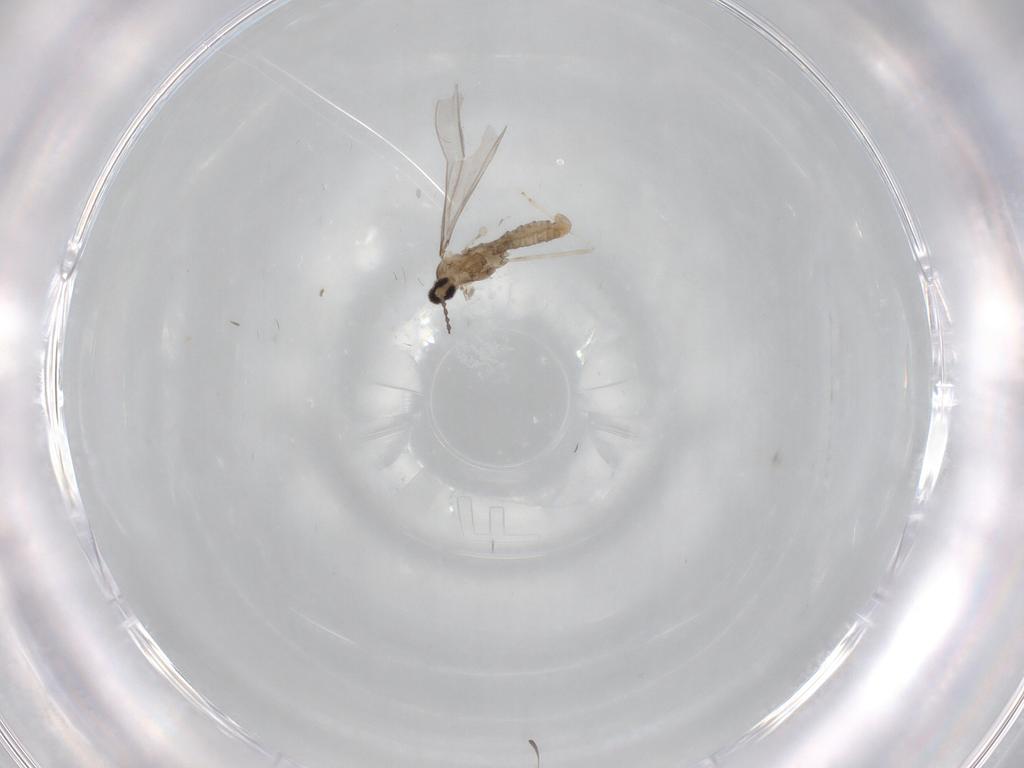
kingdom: Animalia
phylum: Arthropoda
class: Insecta
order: Diptera
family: Cecidomyiidae
